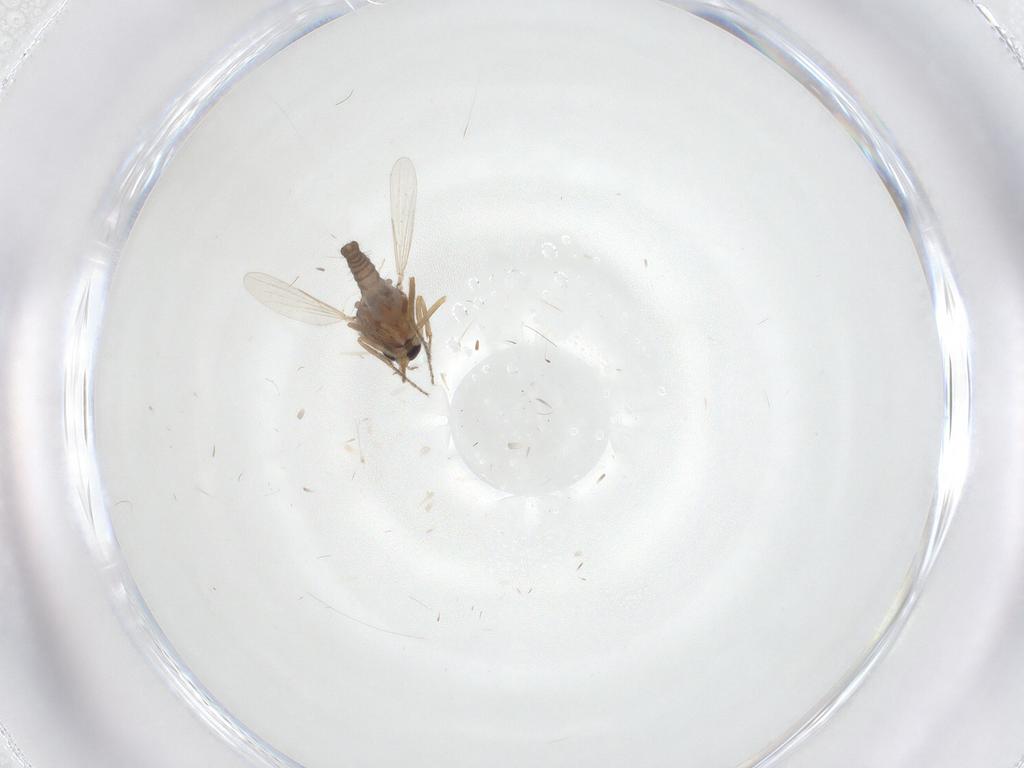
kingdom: Animalia
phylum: Arthropoda
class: Insecta
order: Diptera
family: Ceratopogonidae
